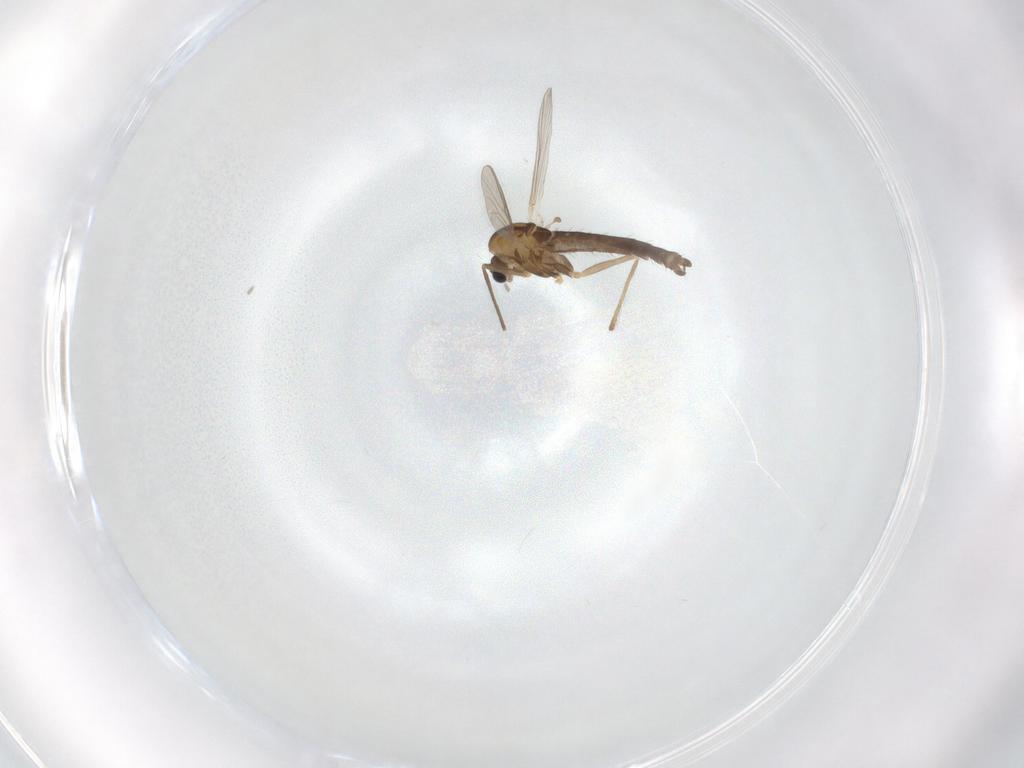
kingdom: Animalia
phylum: Arthropoda
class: Insecta
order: Diptera
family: Chironomidae
